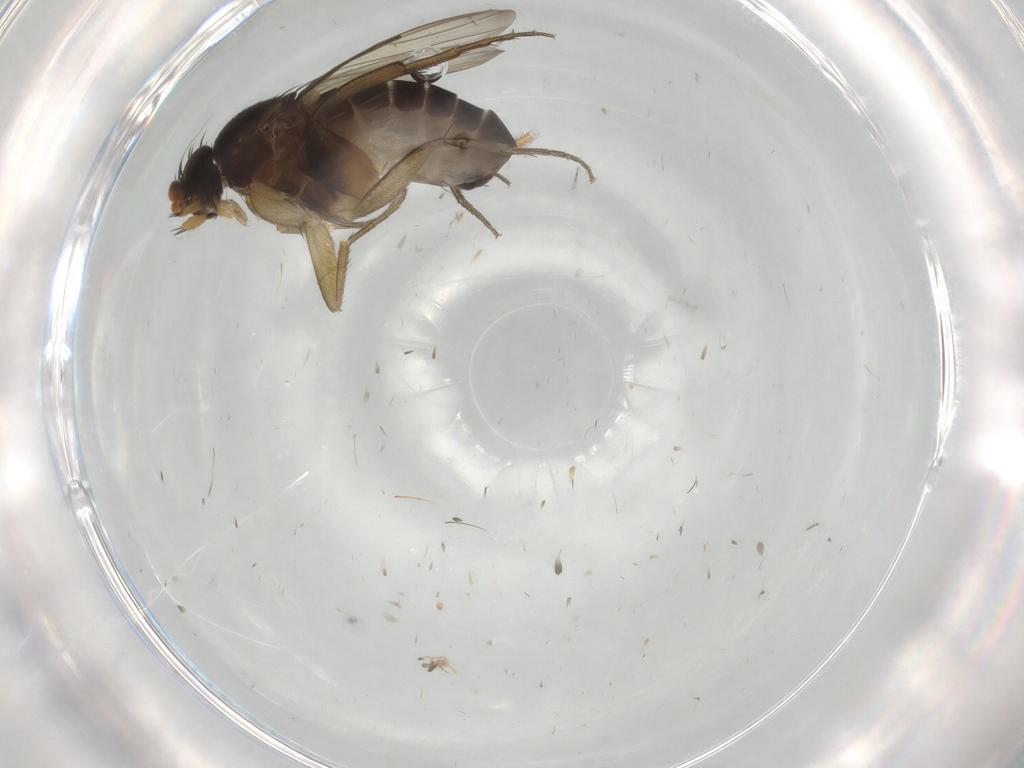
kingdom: Animalia
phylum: Arthropoda
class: Insecta
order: Diptera
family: Phoridae
